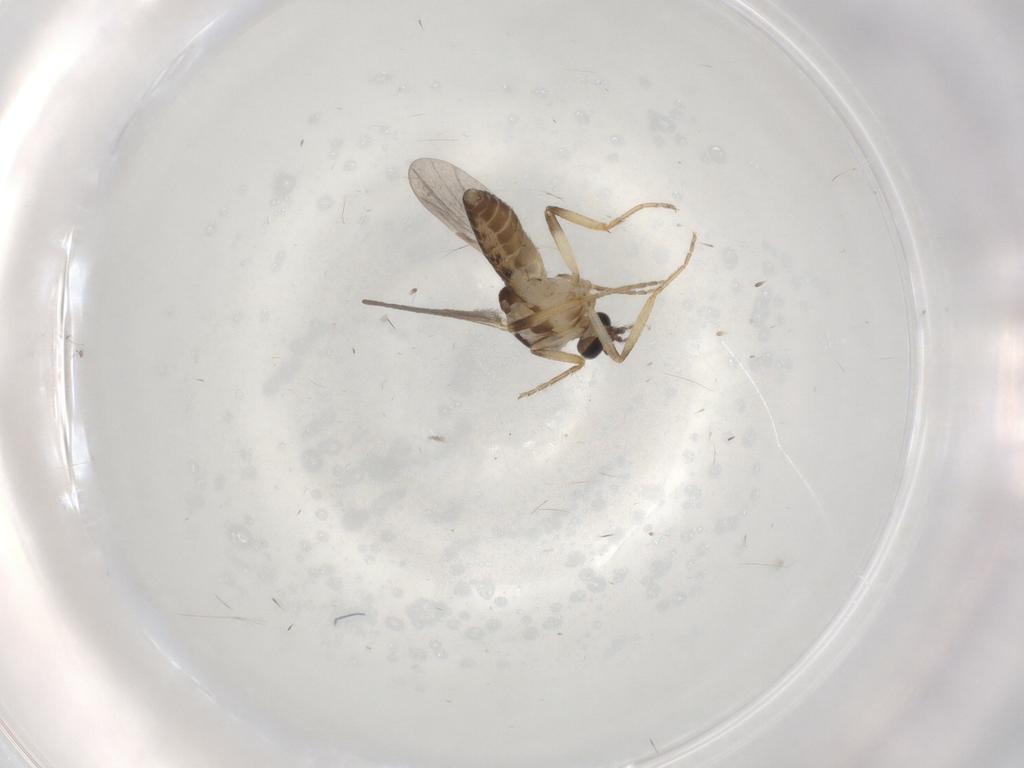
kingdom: Animalia
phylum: Arthropoda
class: Insecta
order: Diptera
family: Ceratopogonidae
